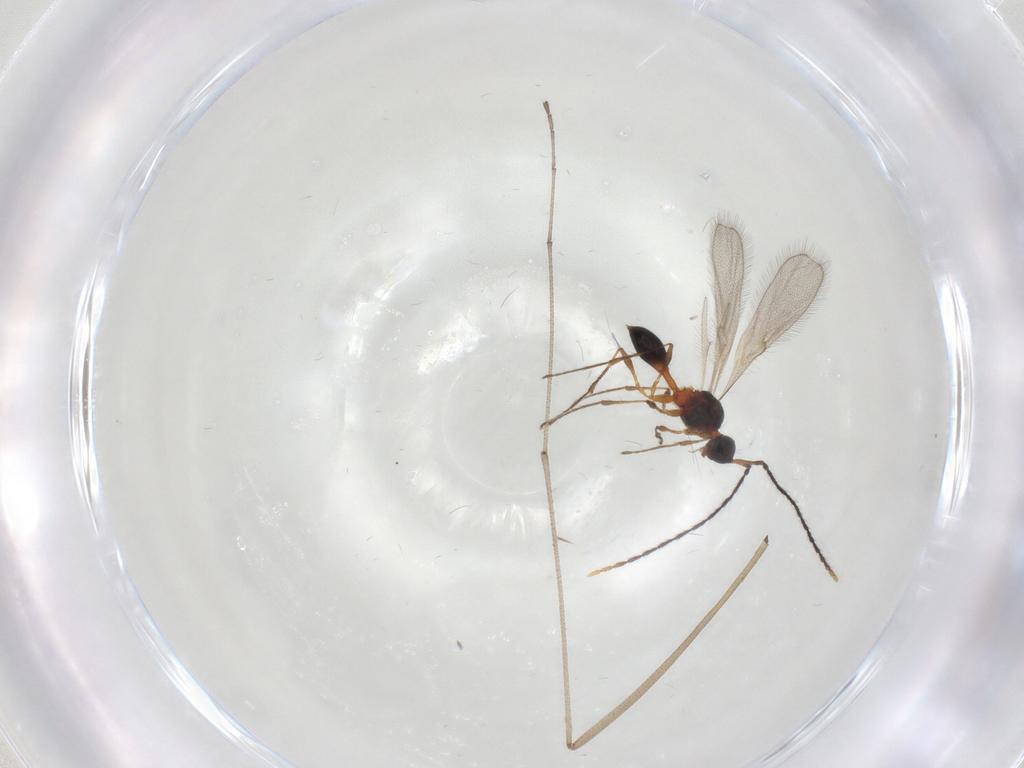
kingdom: Animalia
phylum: Arthropoda
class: Insecta
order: Hymenoptera
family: Diapriidae
